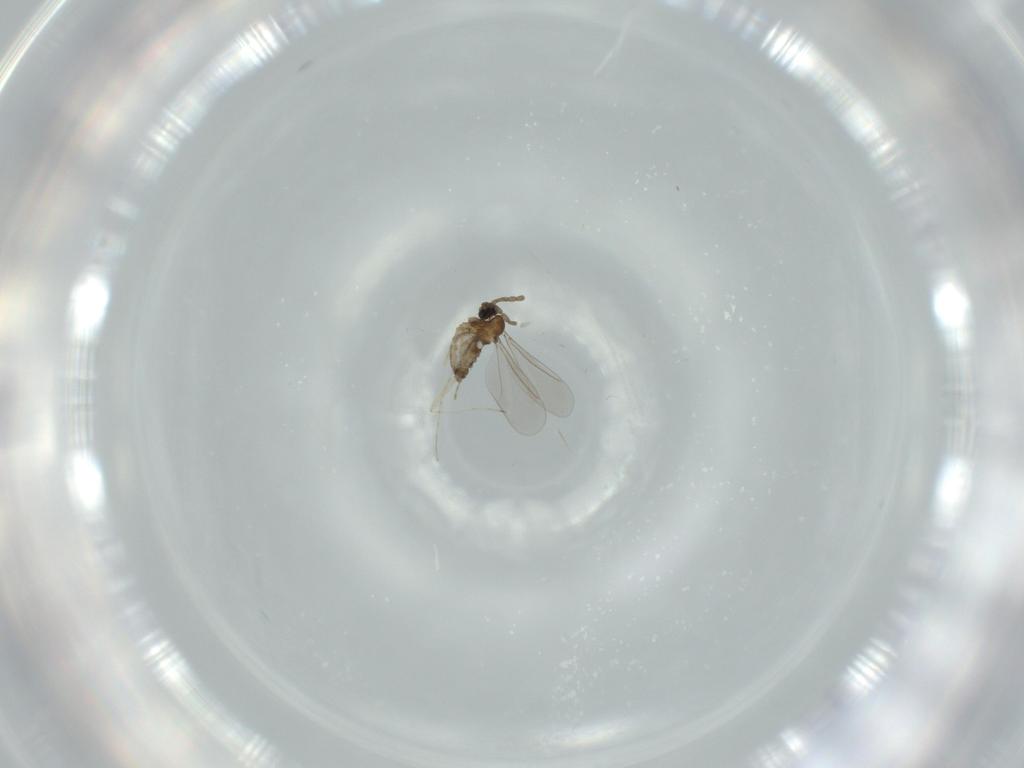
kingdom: Animalia
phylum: Arthropoda
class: Insecta
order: Diptera
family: Cecidomyiidae
